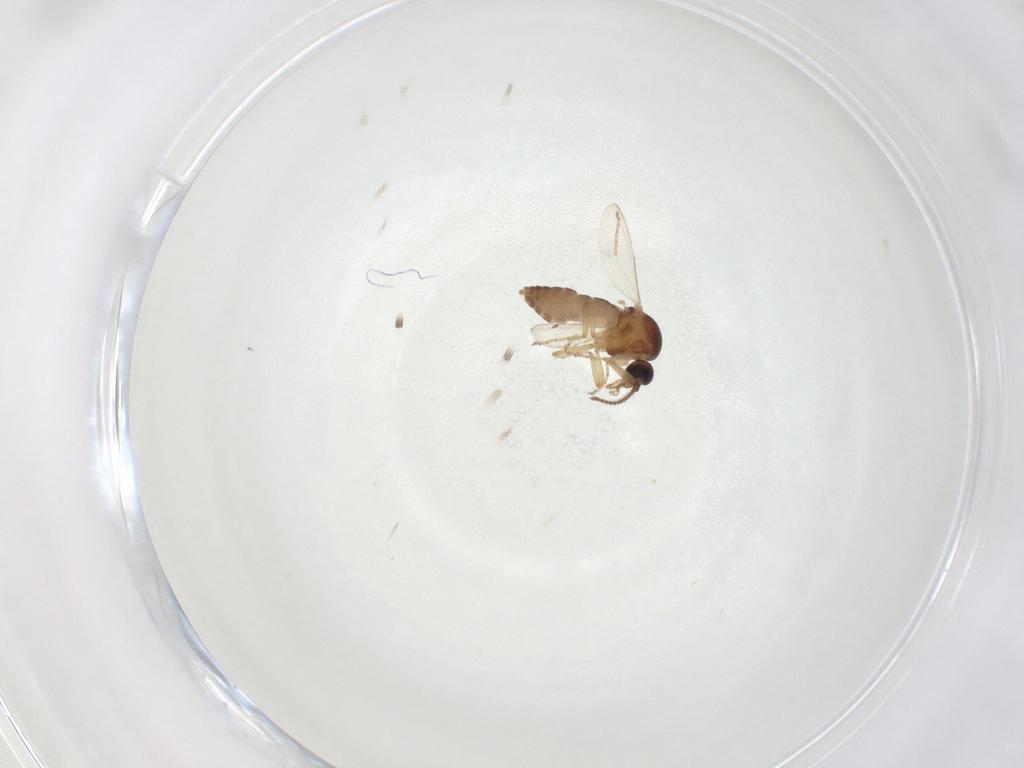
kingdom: Animalia
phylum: Arthropoda
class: Insecta
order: Diptera
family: Ceratopogonidae
